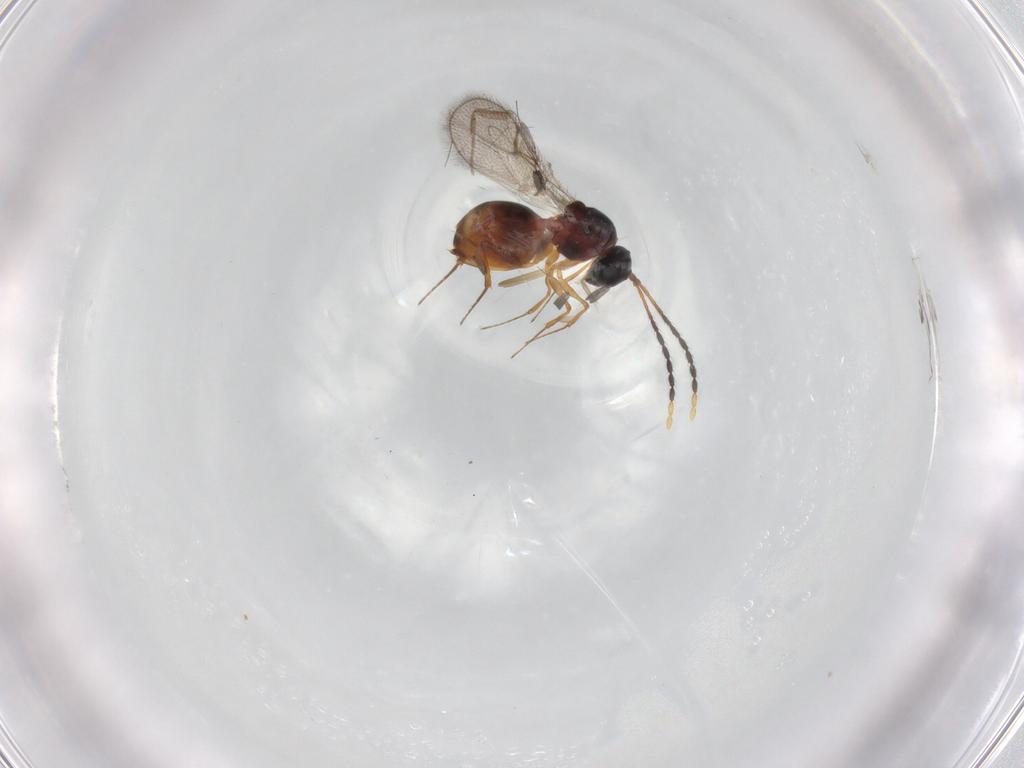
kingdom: Animalia
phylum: Arthropoda
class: Insecta
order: Hymenoptera
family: Figitidae
